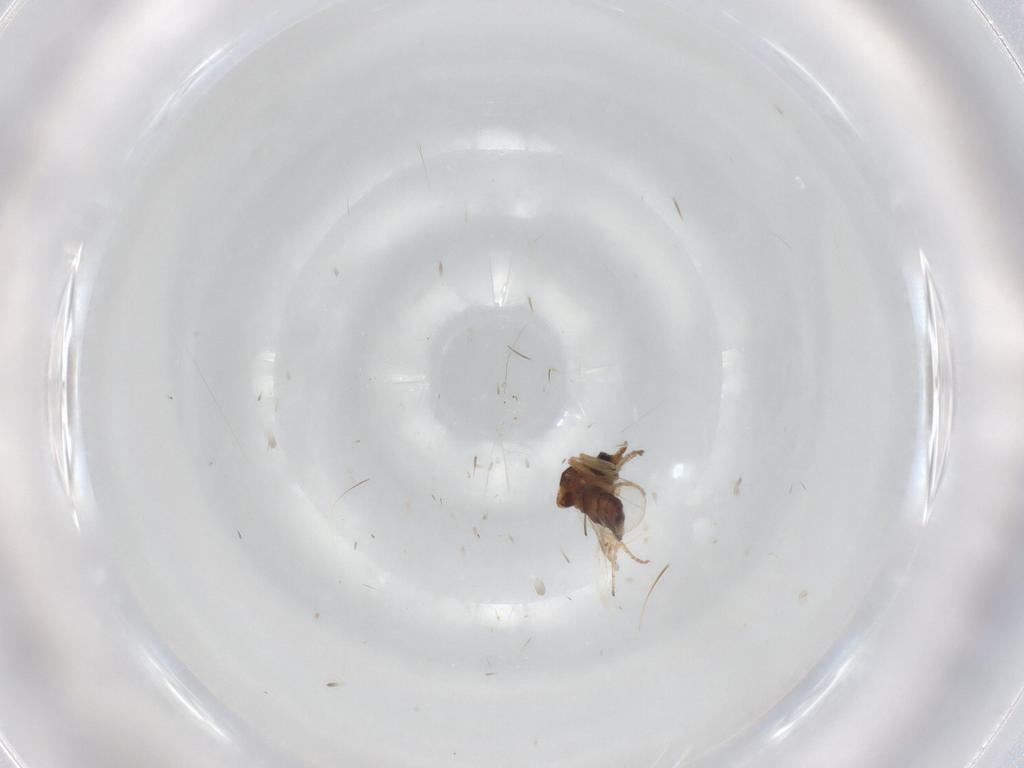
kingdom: Animalia
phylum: Arthropoda
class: Insecta
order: Diptera
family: Ceratopogonidae
